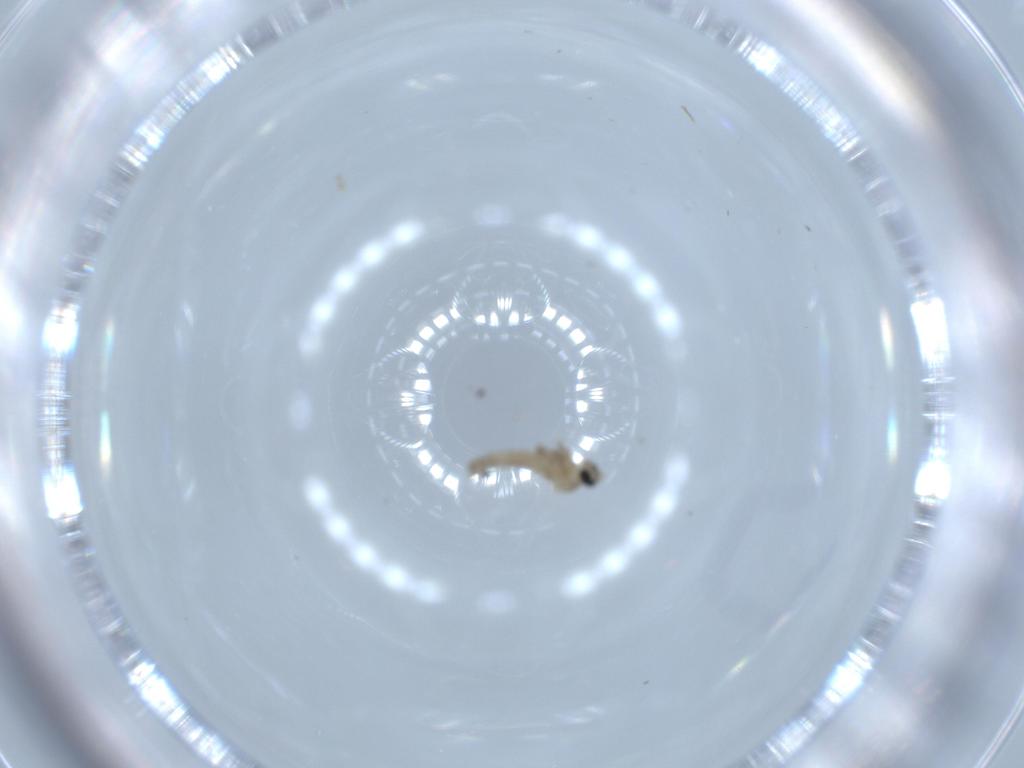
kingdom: Animalia
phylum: Arthropoda
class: Insecta
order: Diptera
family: Cecidomyiidae
